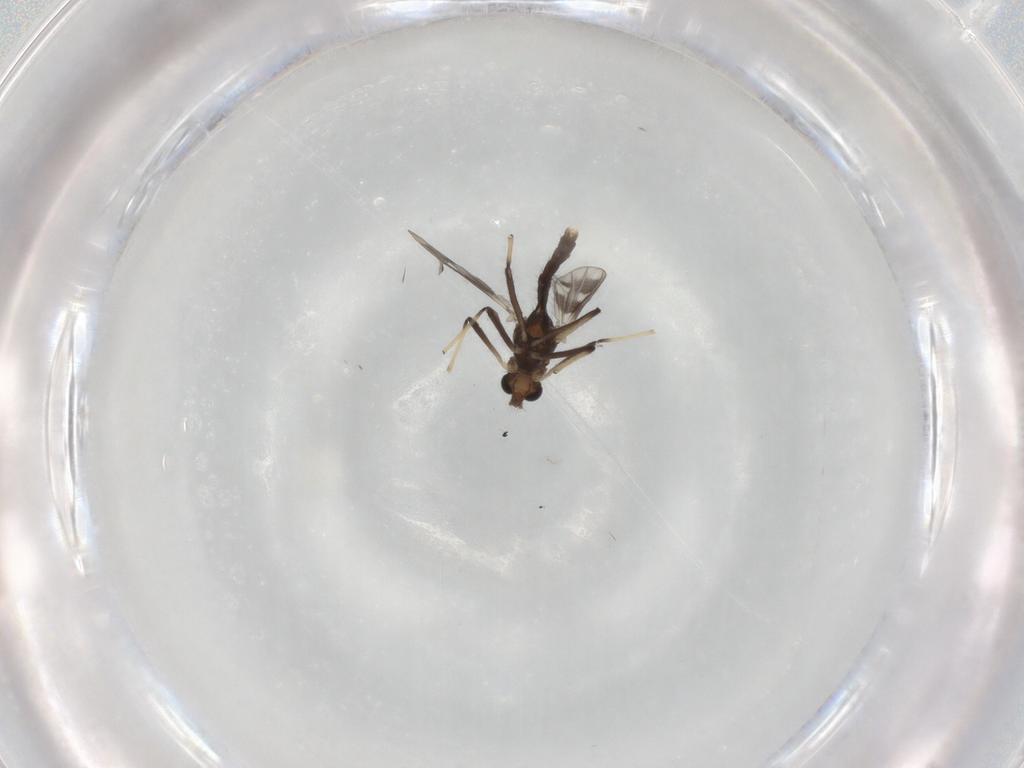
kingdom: Animalia
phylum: Arthropoda
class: Insecta
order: Diptera
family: Chironomidae
